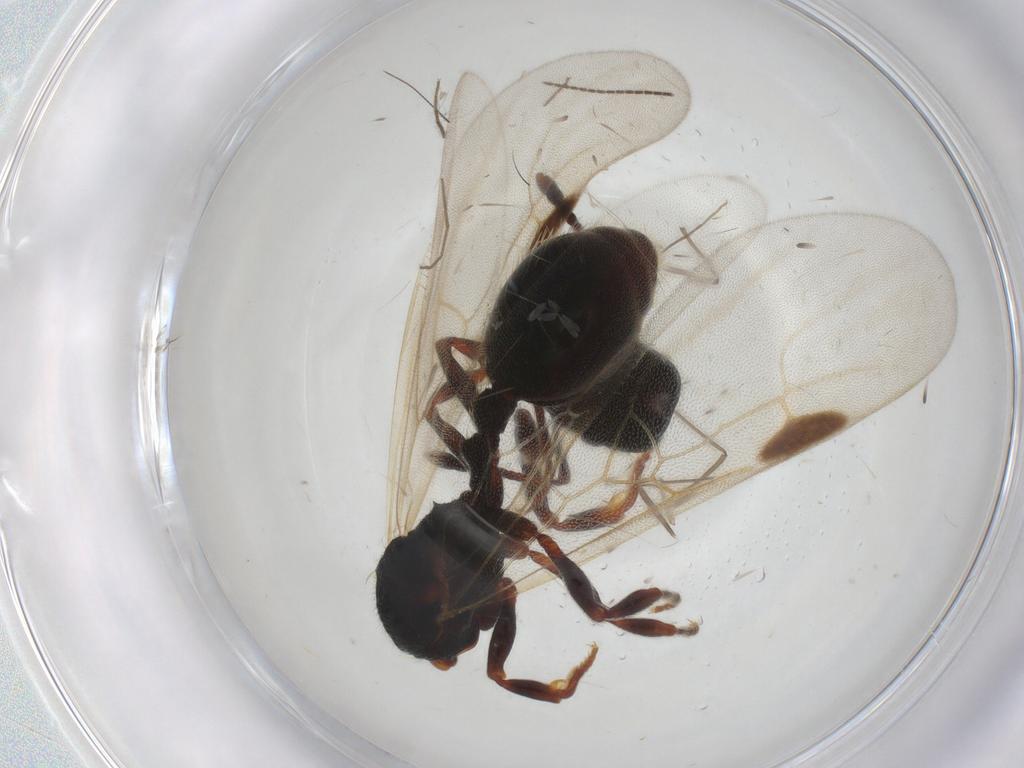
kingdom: Animalia
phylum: Arthropoda
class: Insecta
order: Hymenoptera
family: Formicidae
